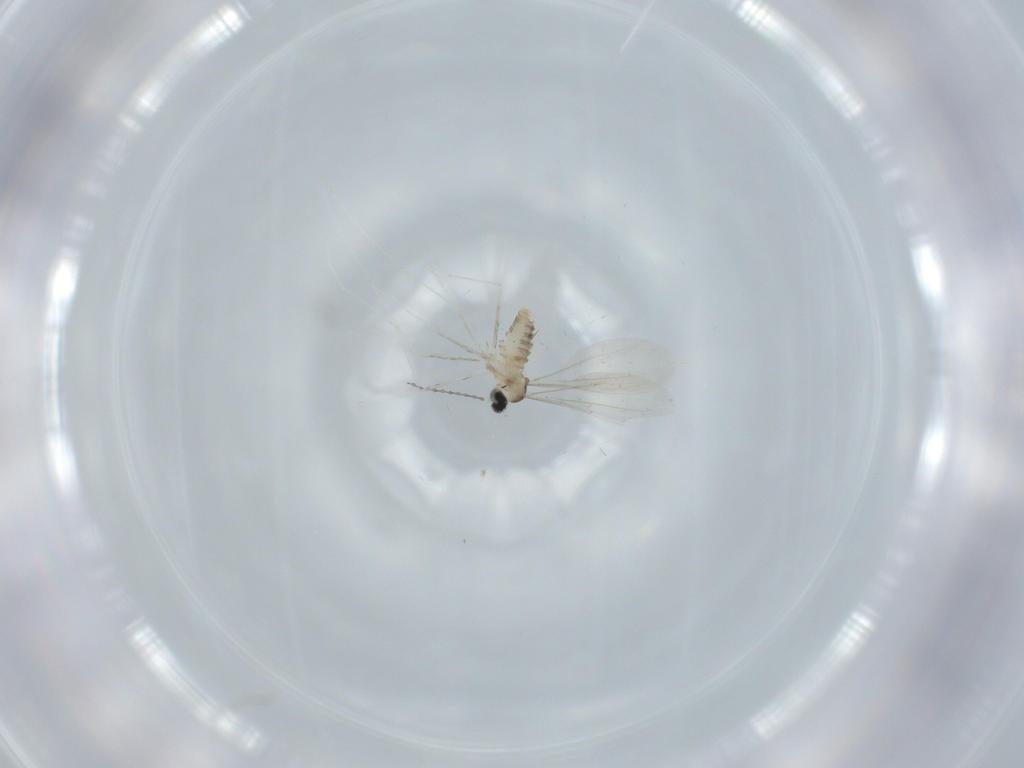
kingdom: Animalia
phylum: Arthropoda
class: Insecta
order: Diptera
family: Cecidomyiidae
